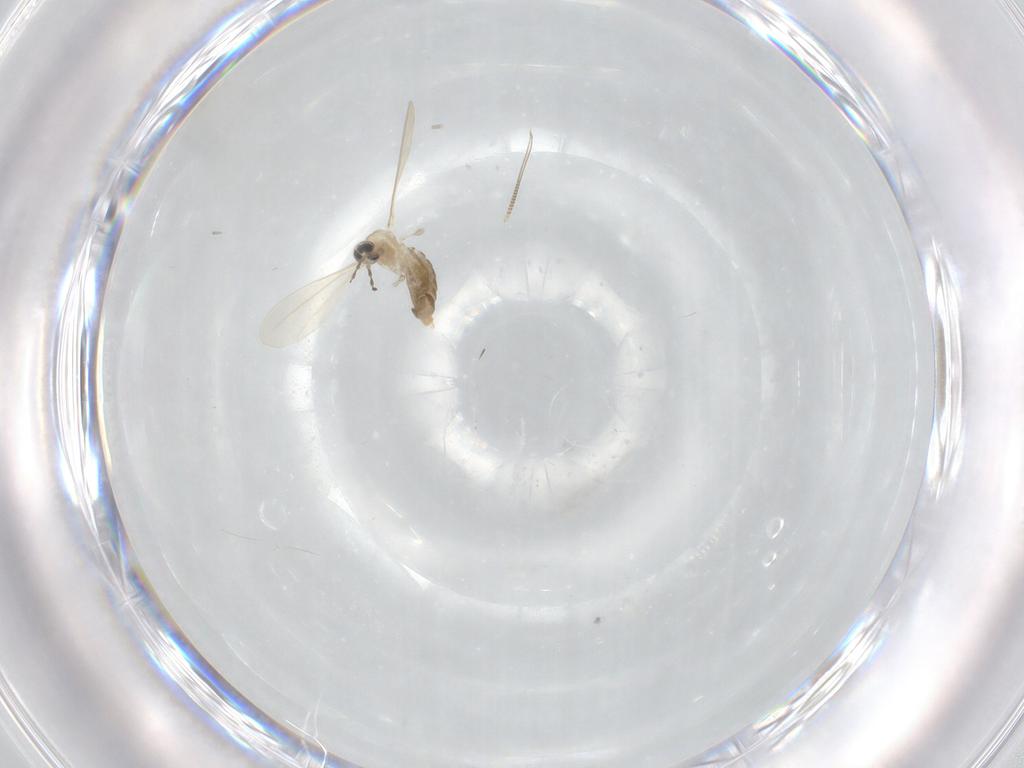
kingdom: Animalia
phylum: Arthropoda
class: Insecta
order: Diptera
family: Cecidomyiidae
